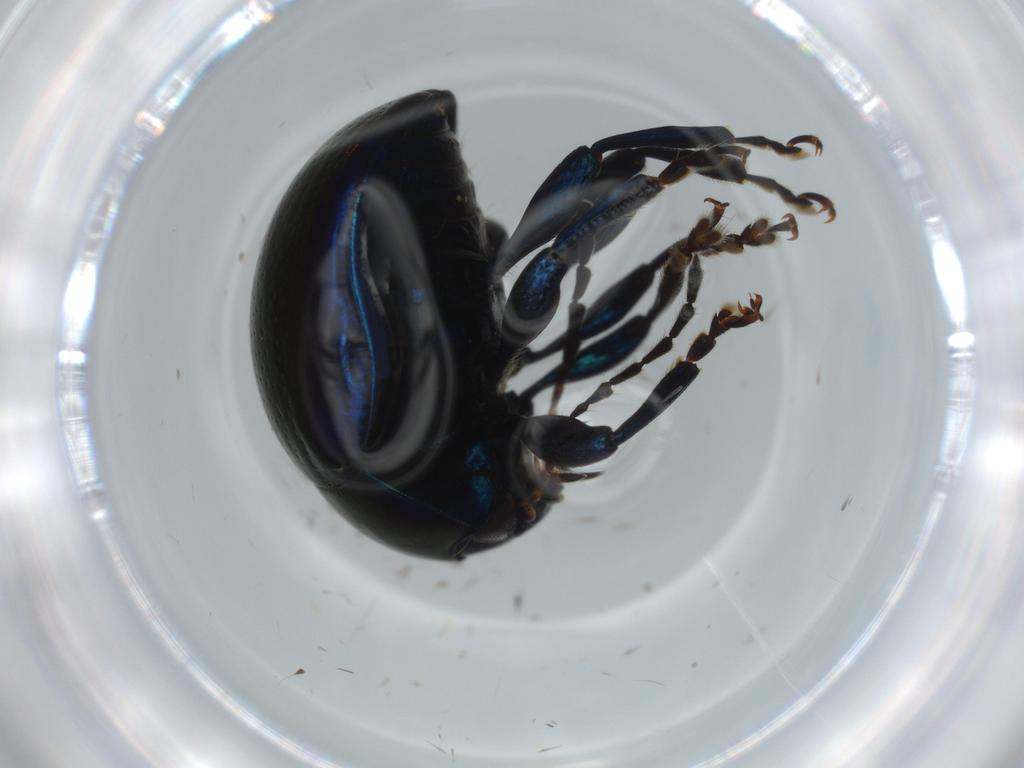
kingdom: Animalia
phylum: Arthropoda
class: Insecta
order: Coleoptera
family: Chrysomelidae
